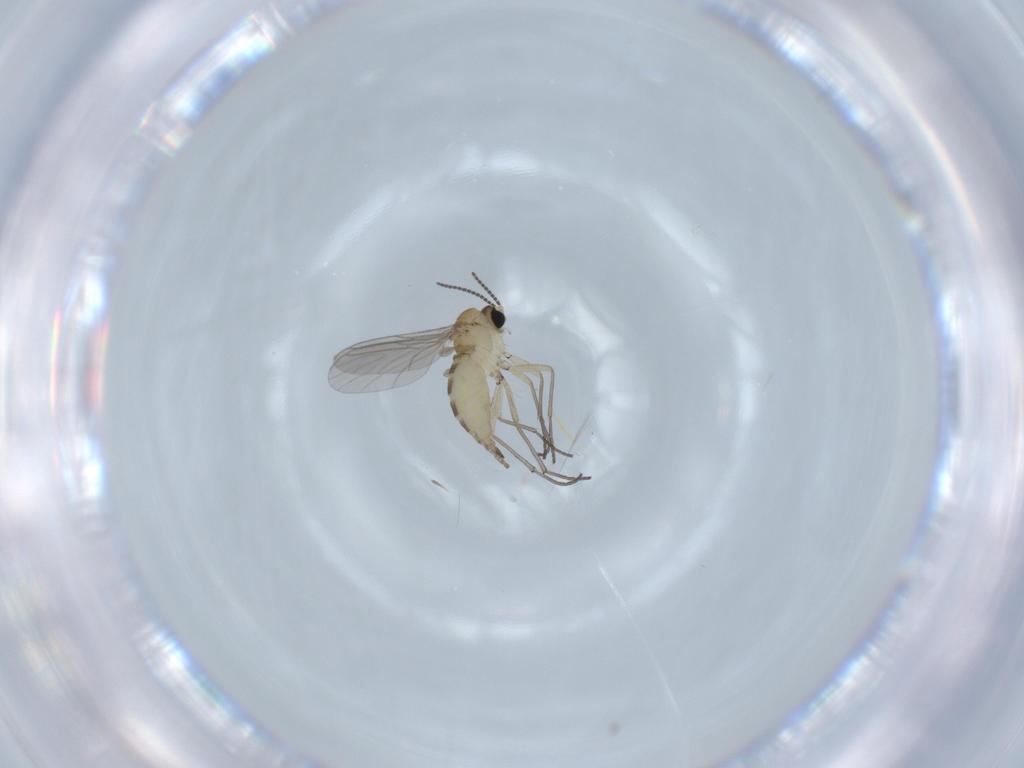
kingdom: Animalia
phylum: Arthropoda
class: Insecta
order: Diptera
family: Sciaridae
